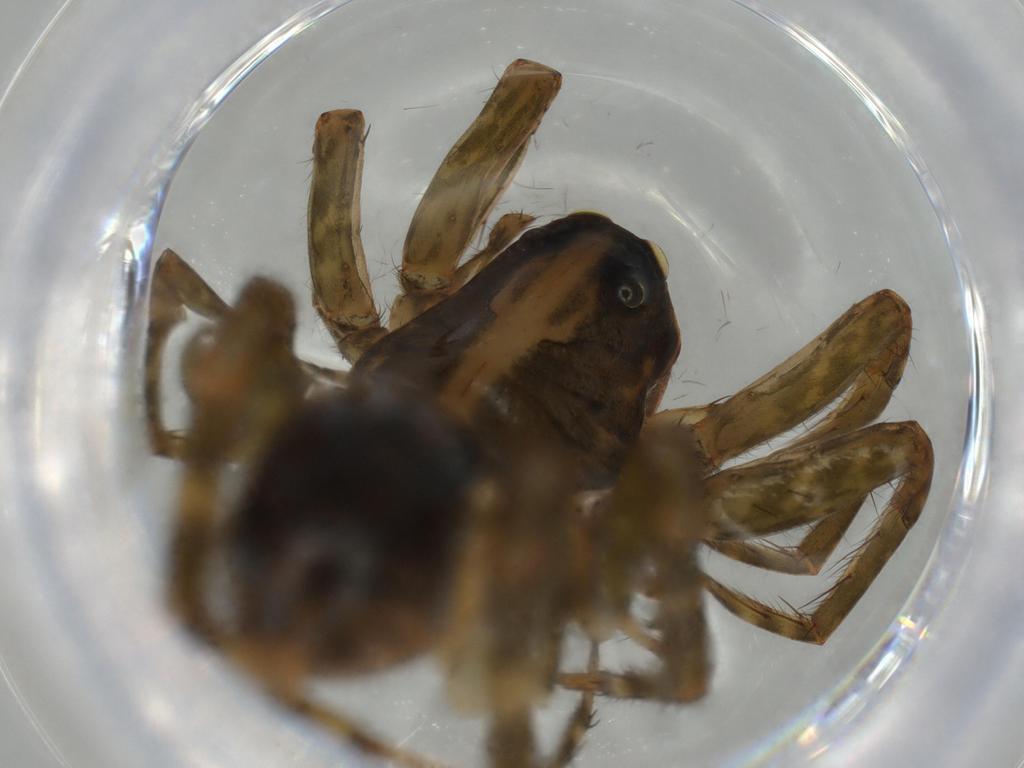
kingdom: Animalia
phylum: Arthropoda
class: Arachnida
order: Araneae
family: Lycosidae
